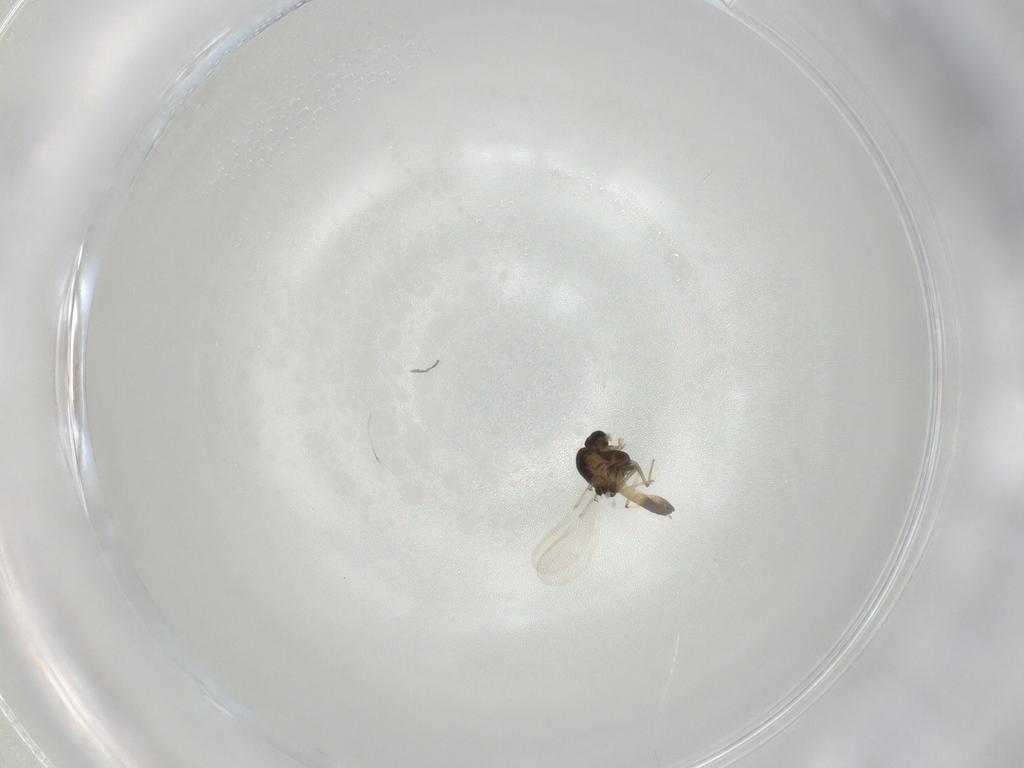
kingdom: Animalia
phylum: Arthropoda
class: Insecta
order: Diptera
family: Chironomidae
